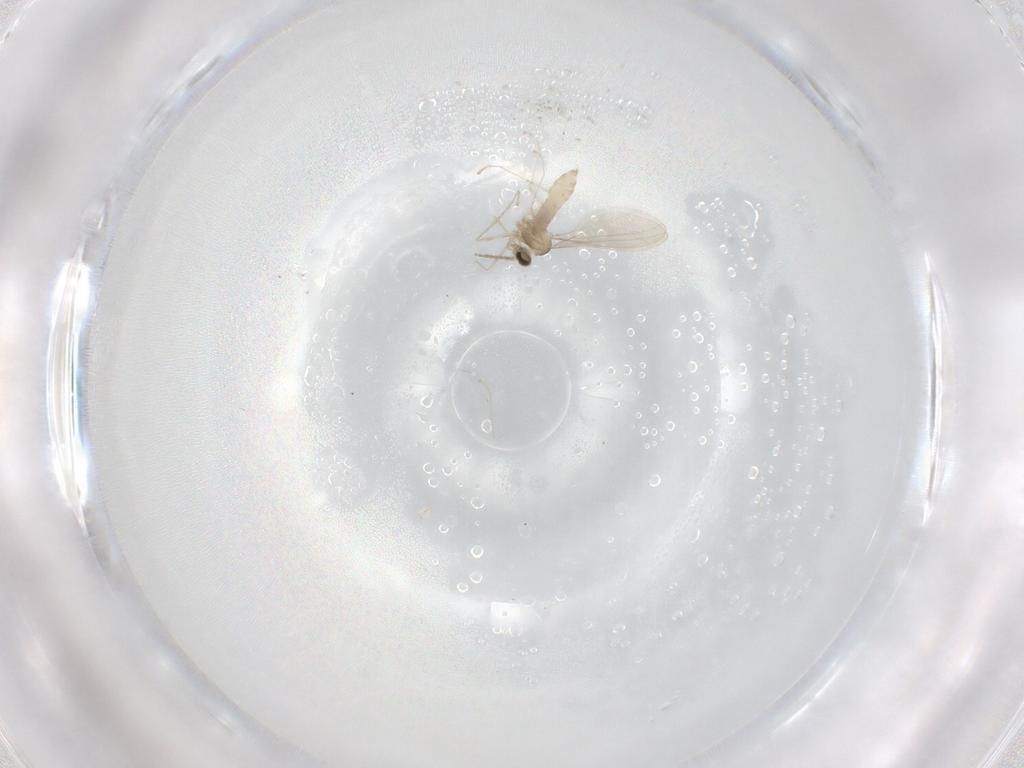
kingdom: Animalia
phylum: Arthropoda
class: Insecta
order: Diptera
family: Cecidomyiidae
